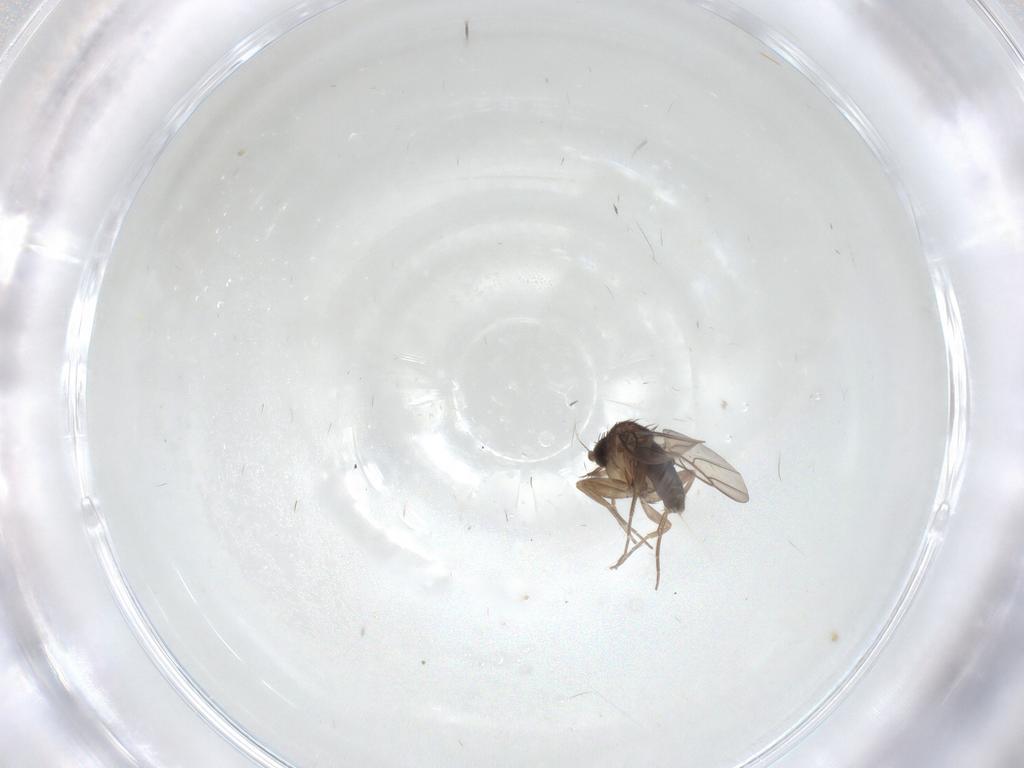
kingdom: Animalia
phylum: Arthropoda
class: Insecta
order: Diptera
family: Phoridae
